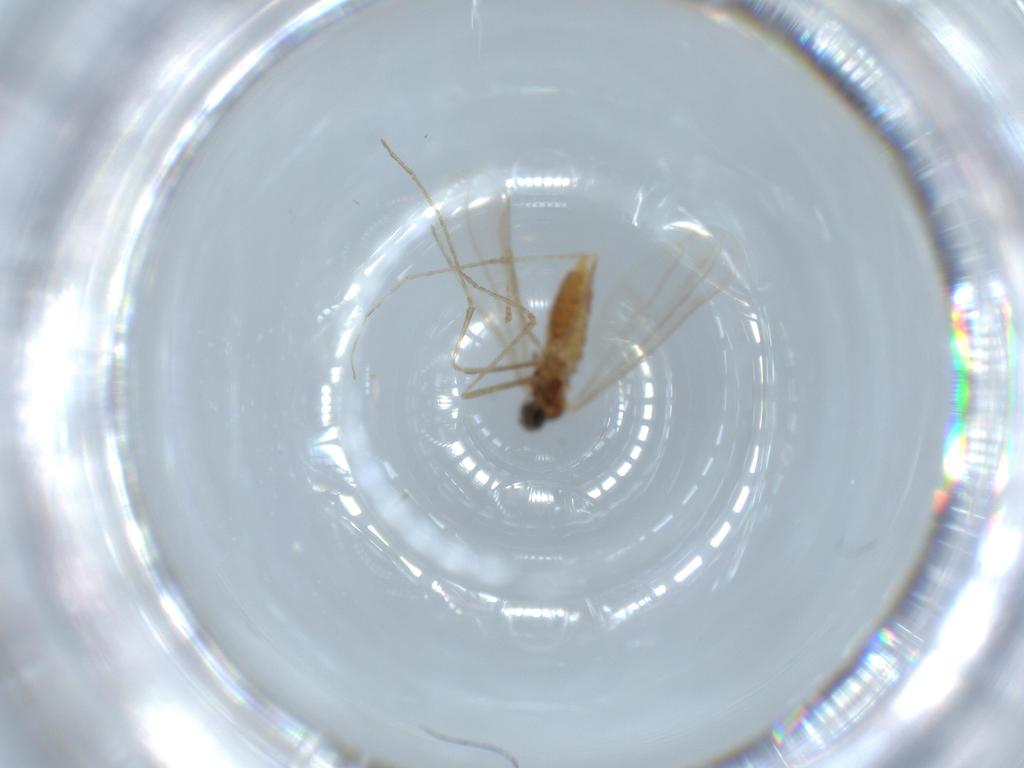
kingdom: Animalia
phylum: Arthropoda
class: Insecta
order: Diptera
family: Cecidomyiidae
